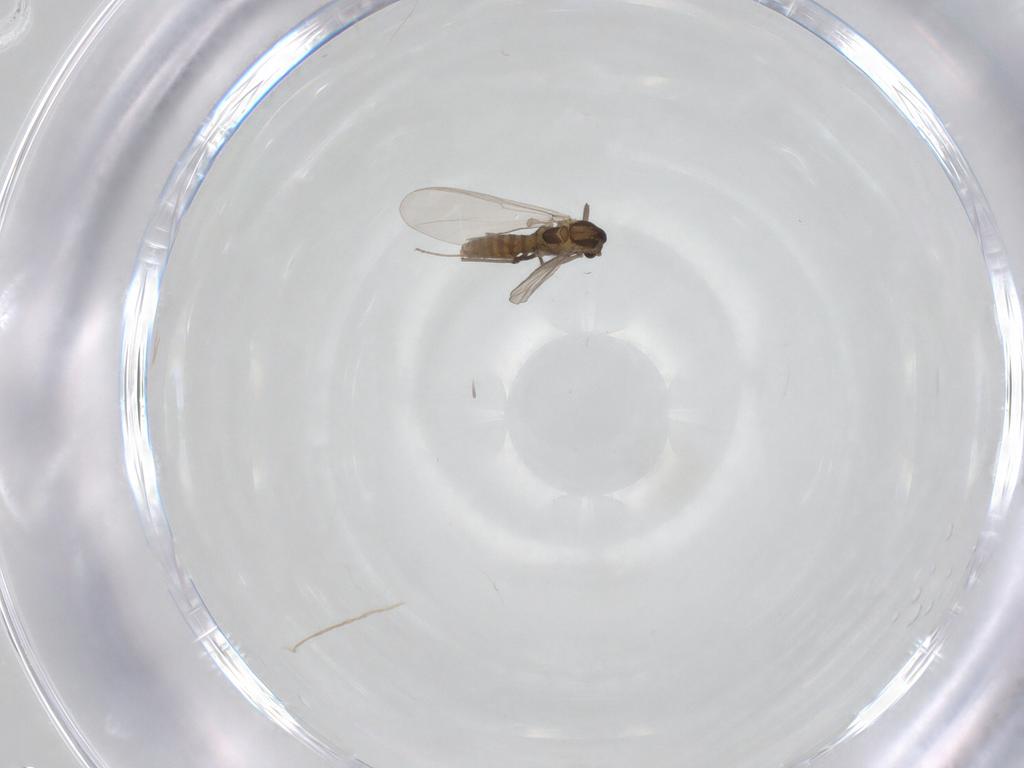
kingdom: Animalia
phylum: Arthropoda
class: Insecta
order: Diptera
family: Chironomidae
